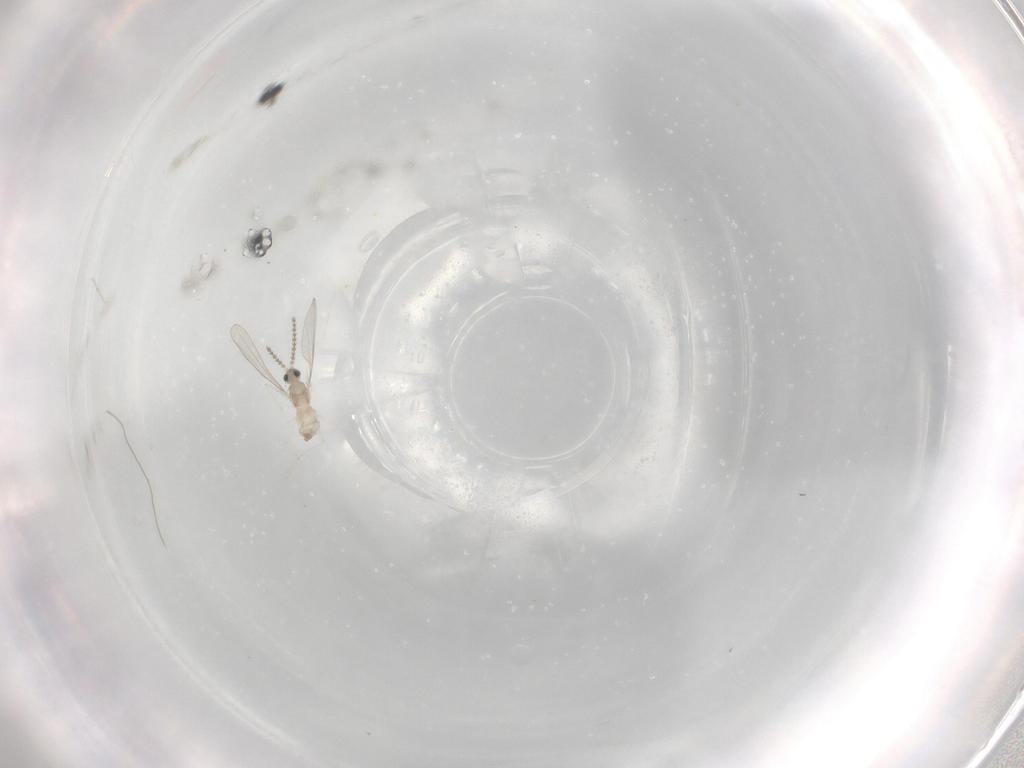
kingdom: Animalia
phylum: Arthropoda
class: Insecta
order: Diptera
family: Cecidomyiidae
